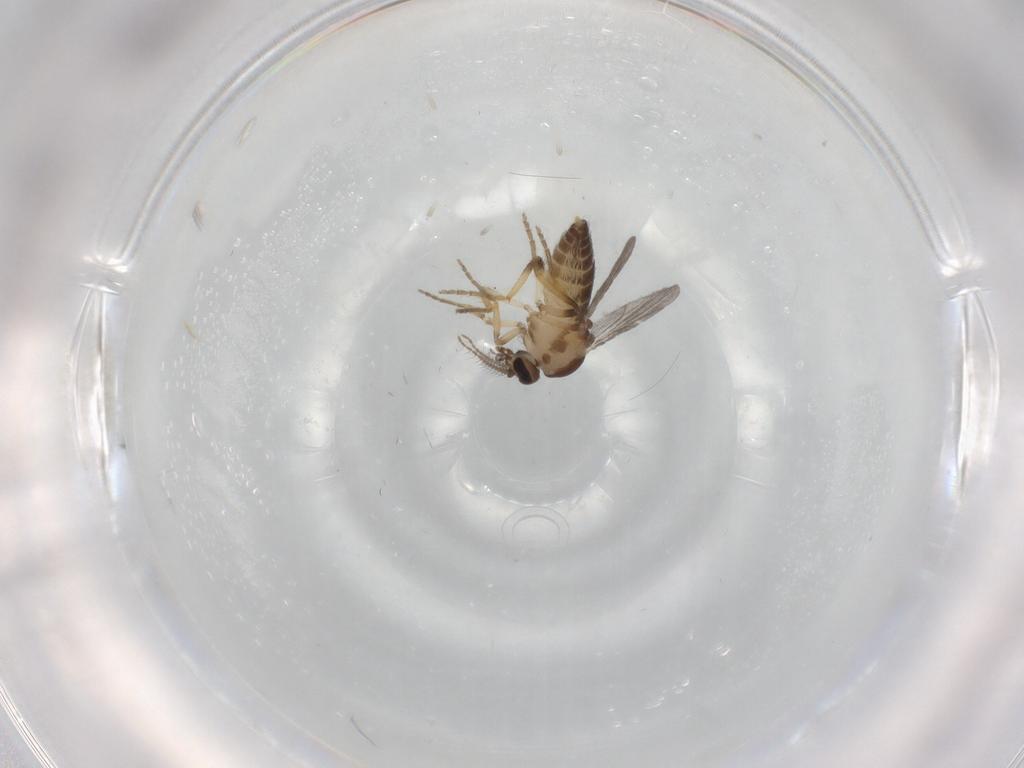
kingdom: Animalia
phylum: Arthropoda
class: Insecta
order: Diptera
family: Ceratopogonidae
